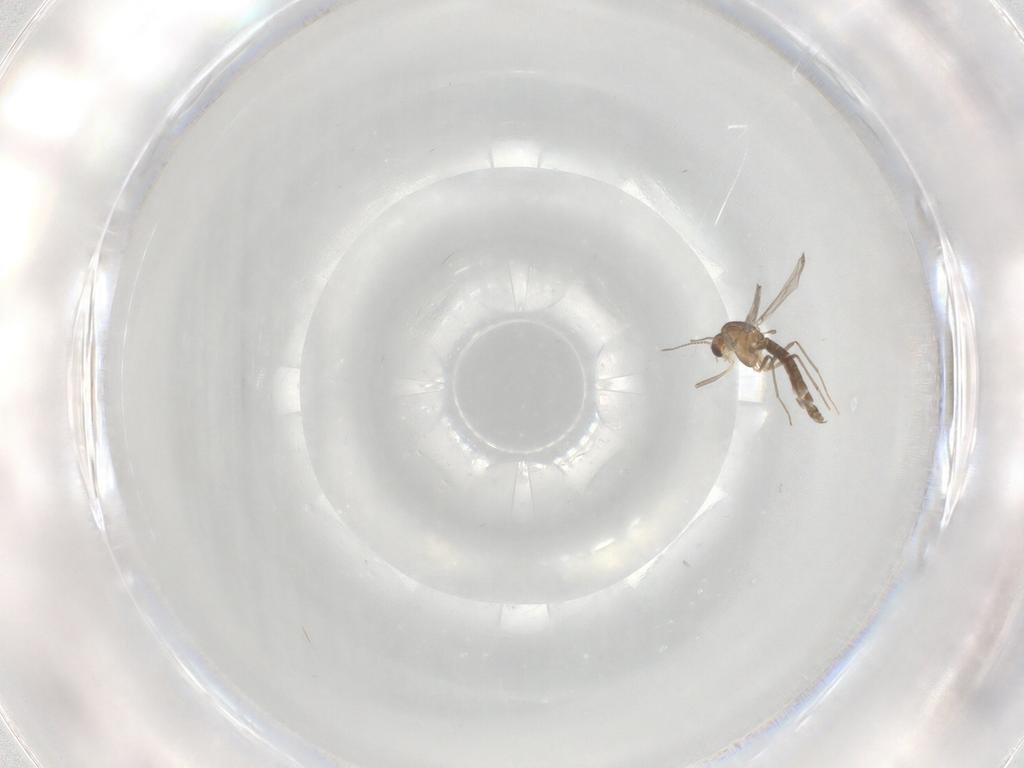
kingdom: Animalia
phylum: Arthropoda
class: Insecta
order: Diptera
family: Chironomidae
